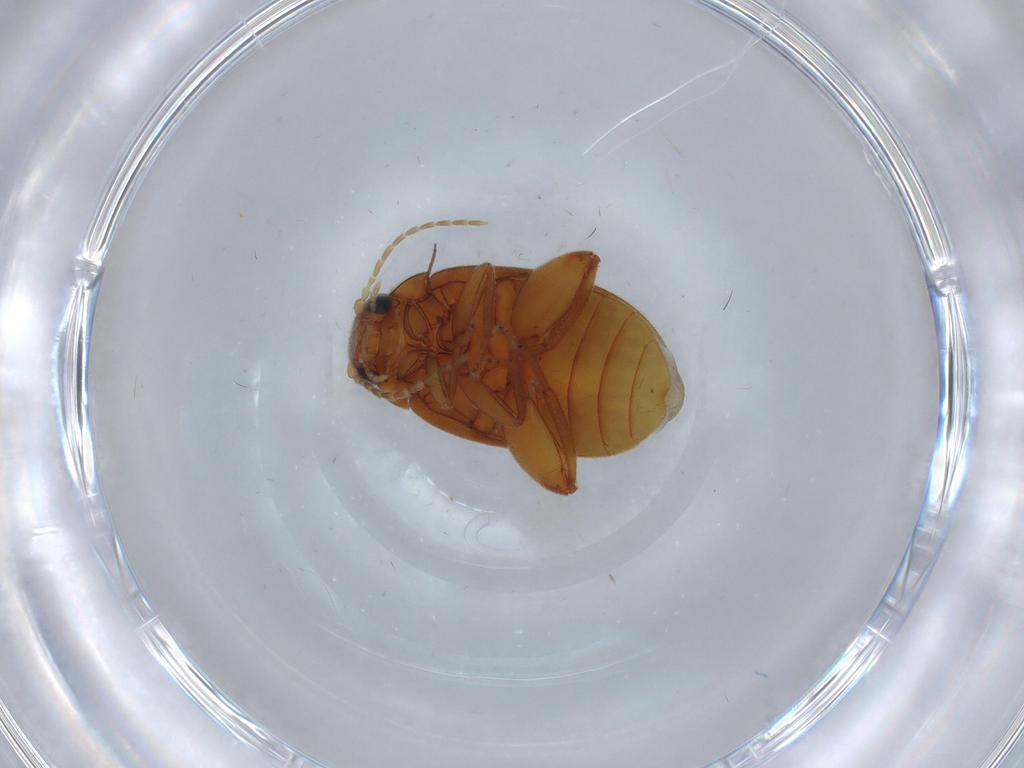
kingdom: Animalia
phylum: Arthropoda
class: Insecta
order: Coleoptera
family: Scirtidae
